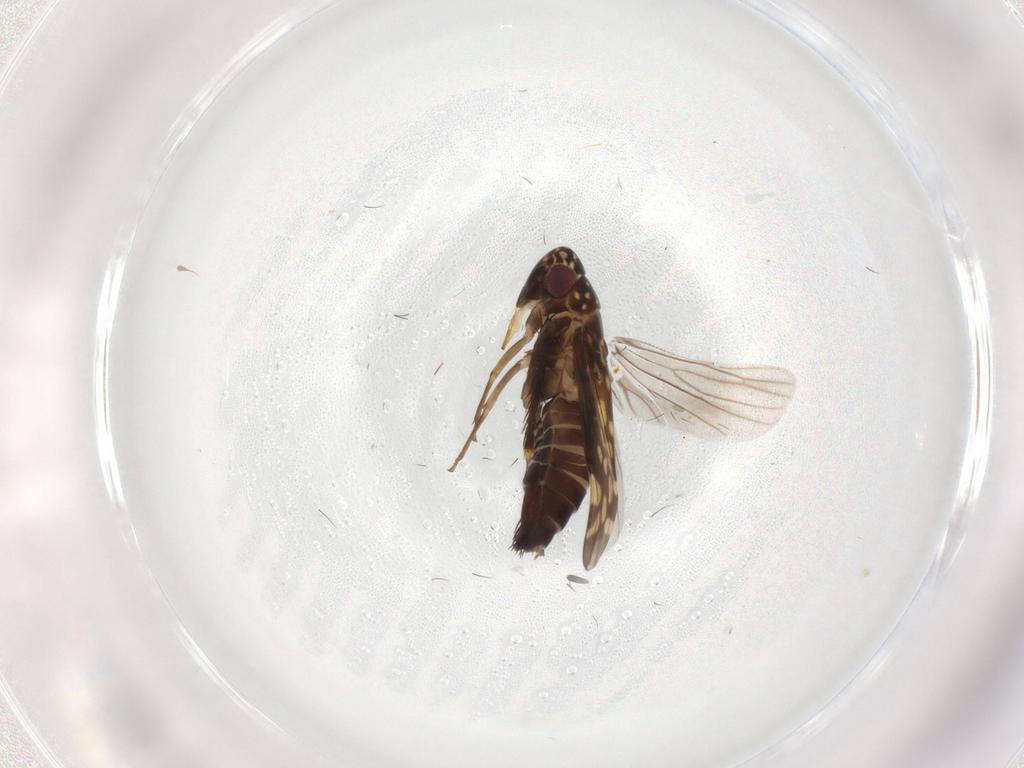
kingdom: Animalia
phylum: Arthropoda
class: Insecta
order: Hemiptera
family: Cicadellidae
